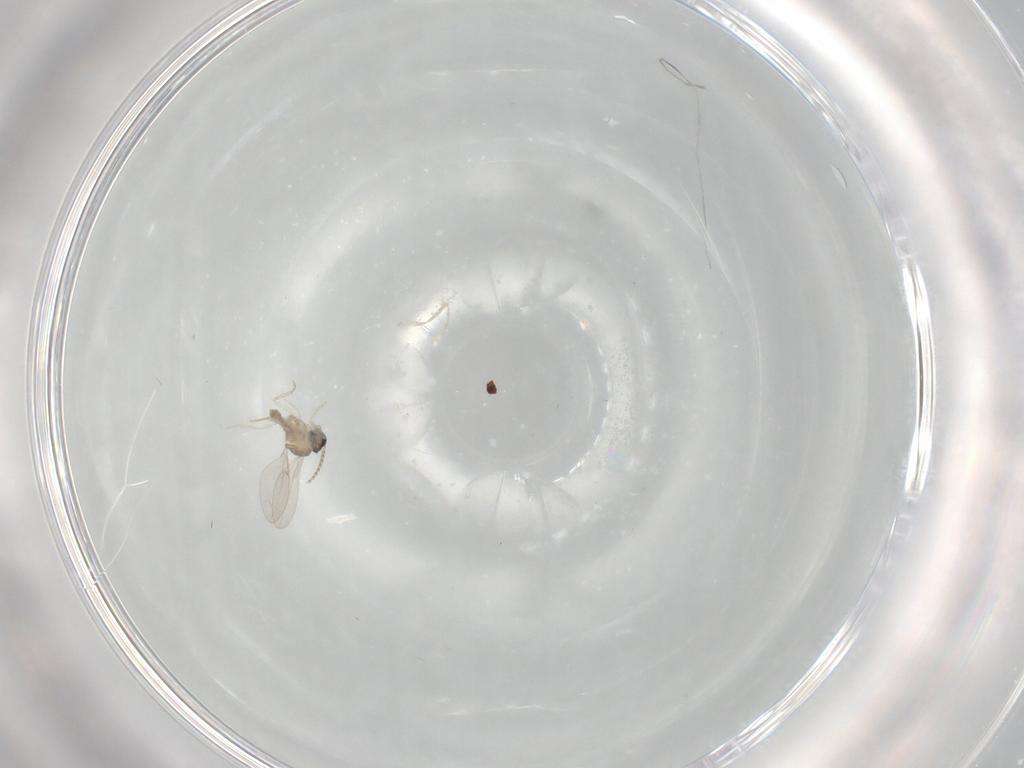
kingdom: Animalia
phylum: Arthropoda
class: Insecta
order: Diptera
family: Cecidomyiidae
